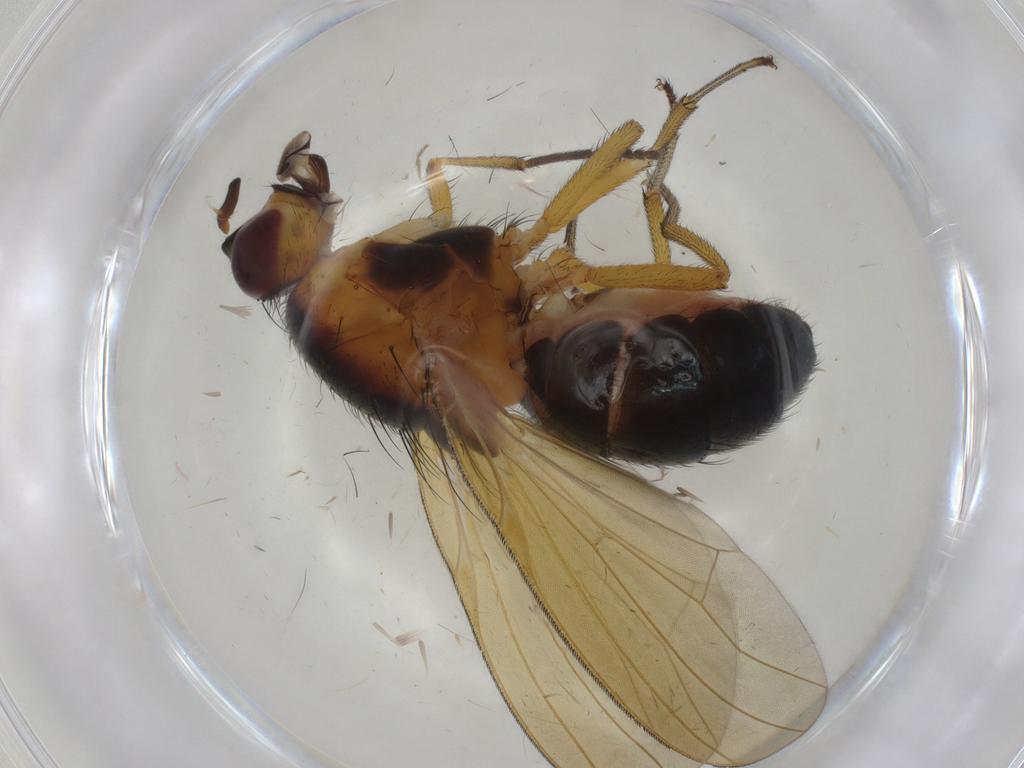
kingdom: Animalia
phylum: Arthropoda
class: Insecta
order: Diptera
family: Lauxaniidae
